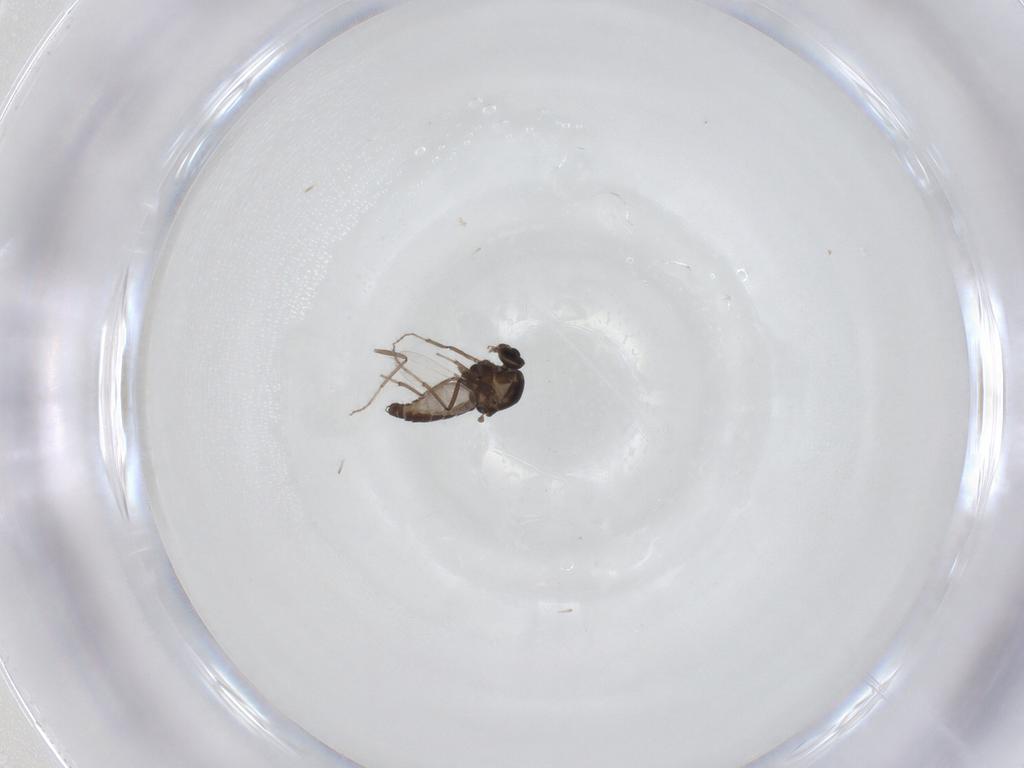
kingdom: Animalia
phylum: Arthropoda
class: Insecta
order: Diptera
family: Ceratopogonidae
